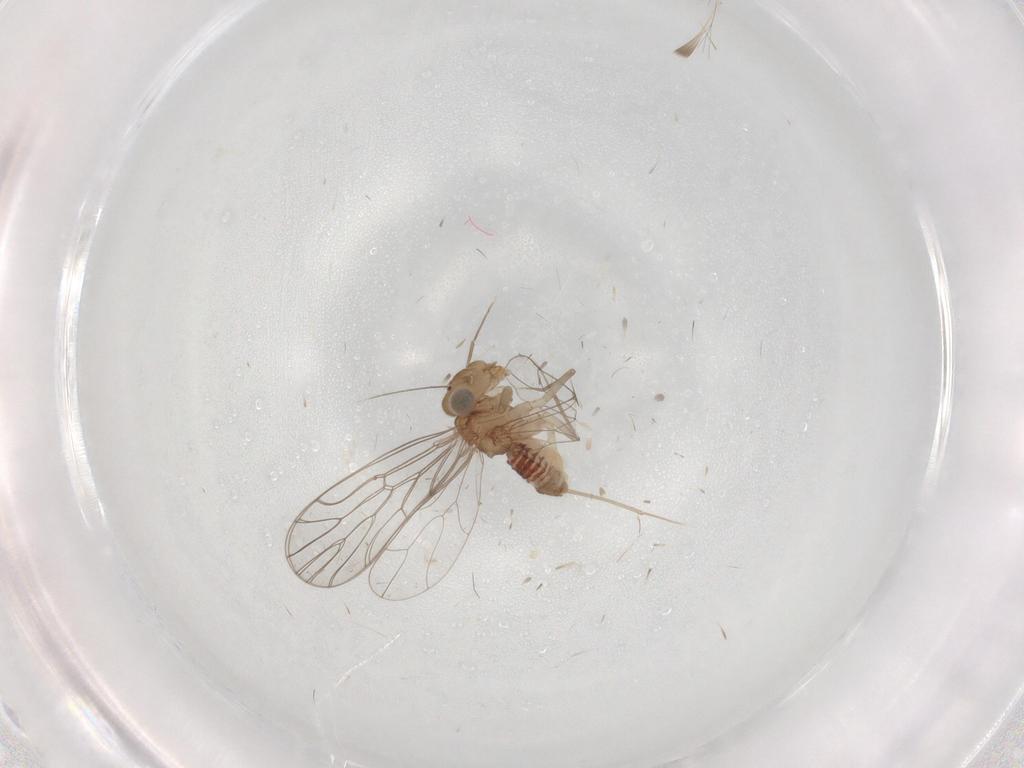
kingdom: Animalia
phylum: Arthropoda
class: Insecta
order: Psocodea
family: Amphientomidae
